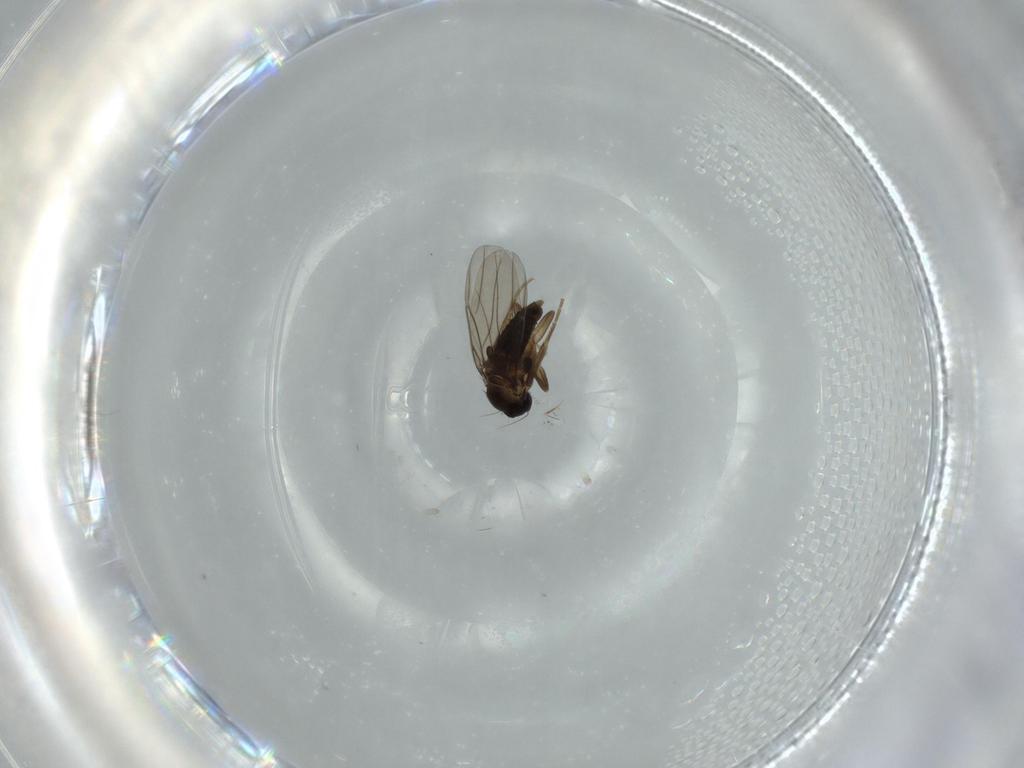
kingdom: Animalia
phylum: Arthropoda
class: Insecta
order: Diptera
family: Phoridae
